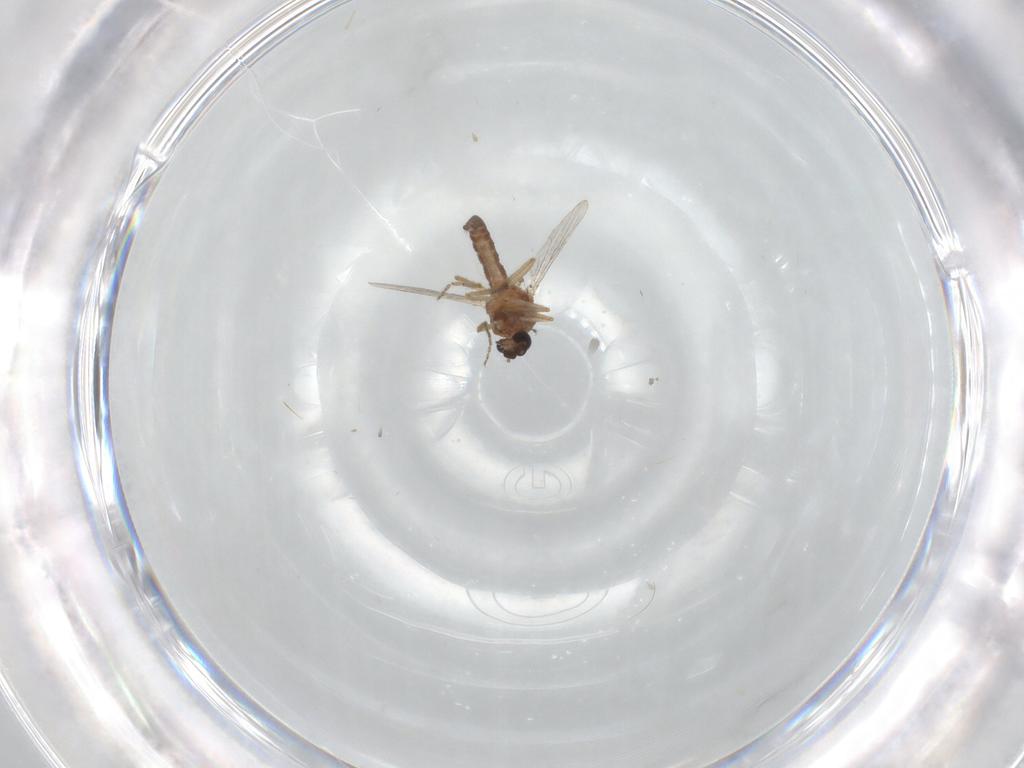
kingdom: Animalia
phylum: Arthropoda
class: Insecta
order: Diptera
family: Ceratopogonidae
